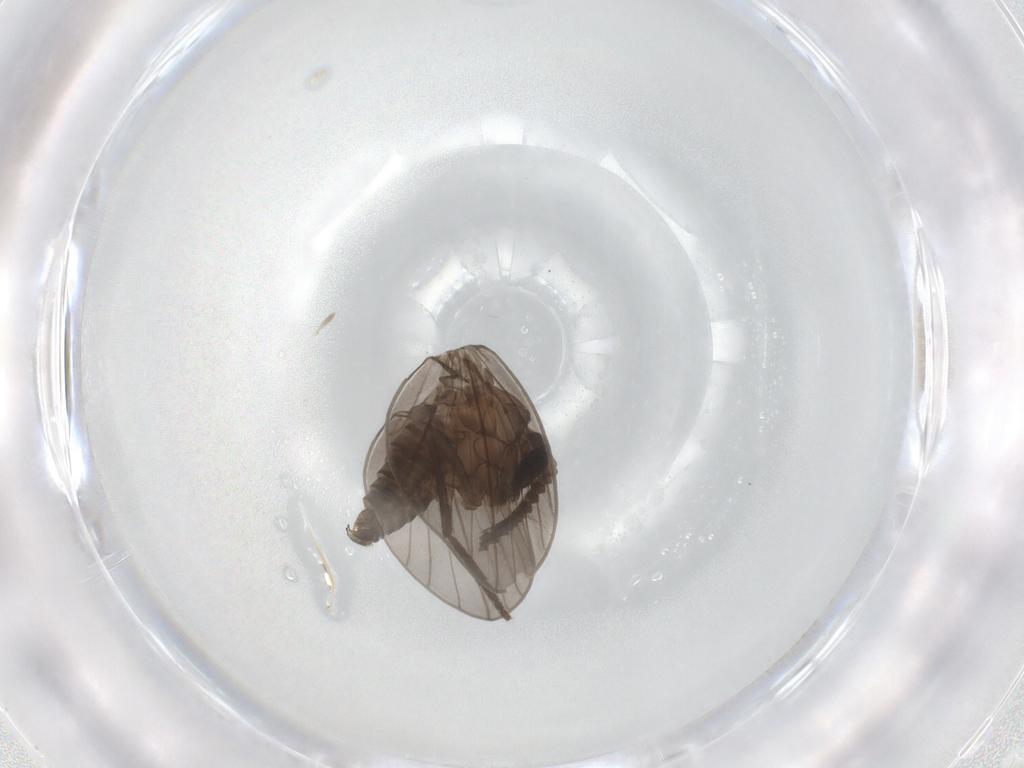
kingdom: Animalia
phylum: Arthropoda
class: Insecta
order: Diptera
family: Psychodidae
